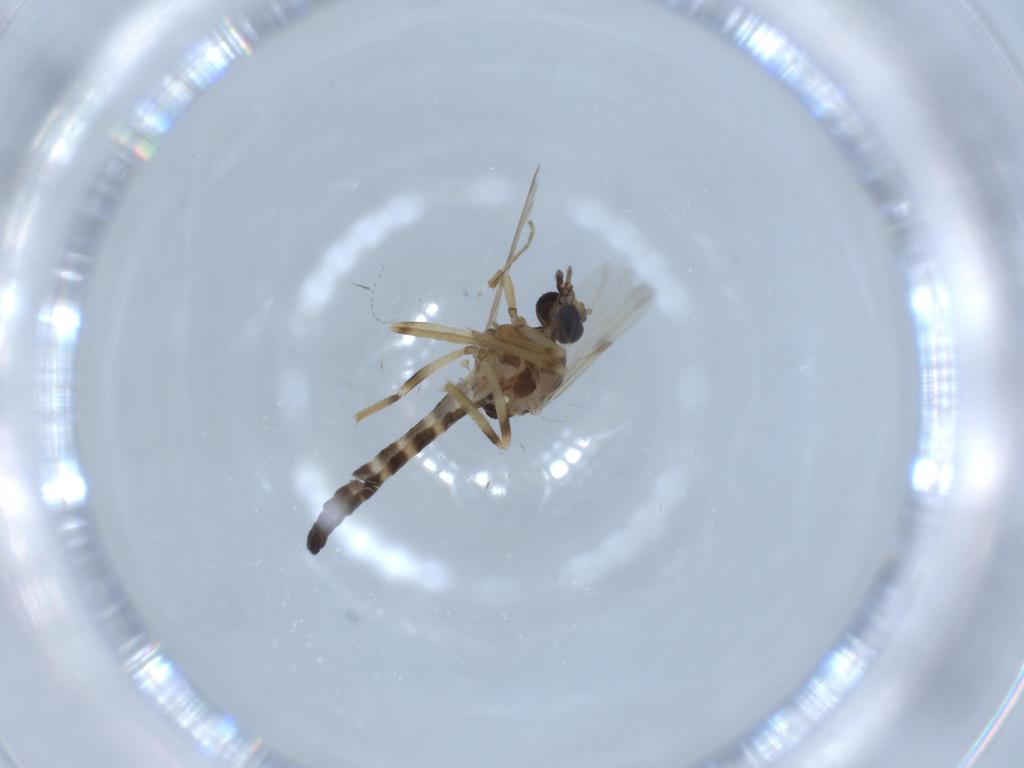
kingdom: Animalia
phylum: Arthropoda
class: Insecta
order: Diptera
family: Ceratopogonidae
